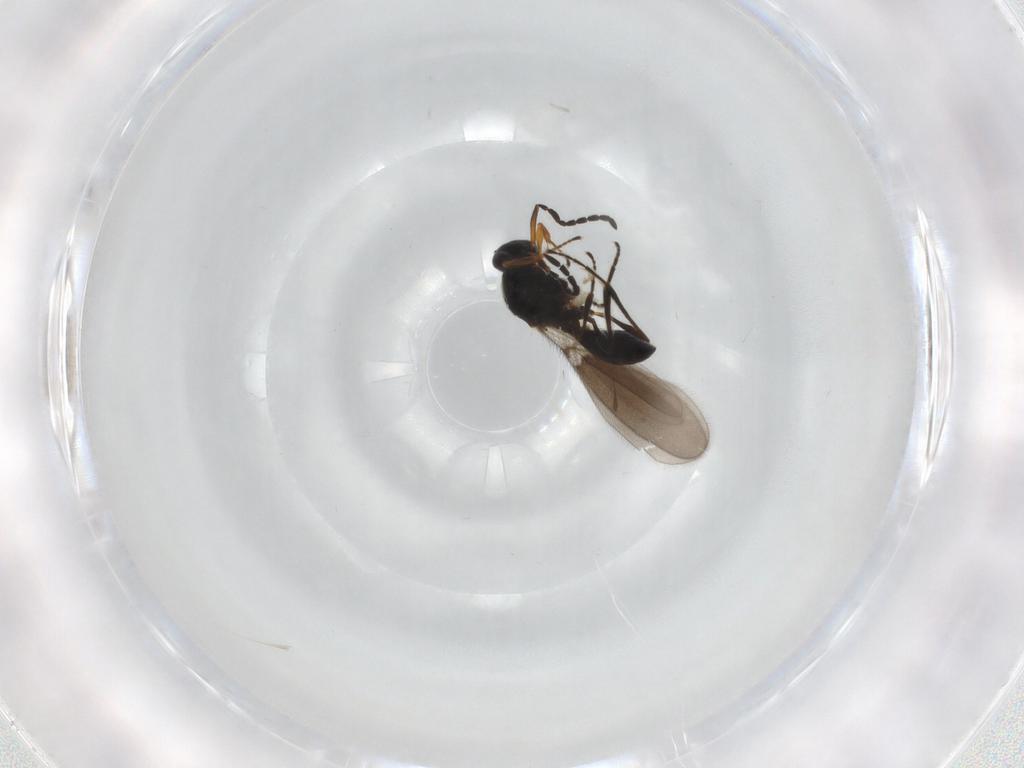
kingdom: Animalia
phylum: Arthropoda
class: Insecta
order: Hymenoptera
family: Platygastridae
